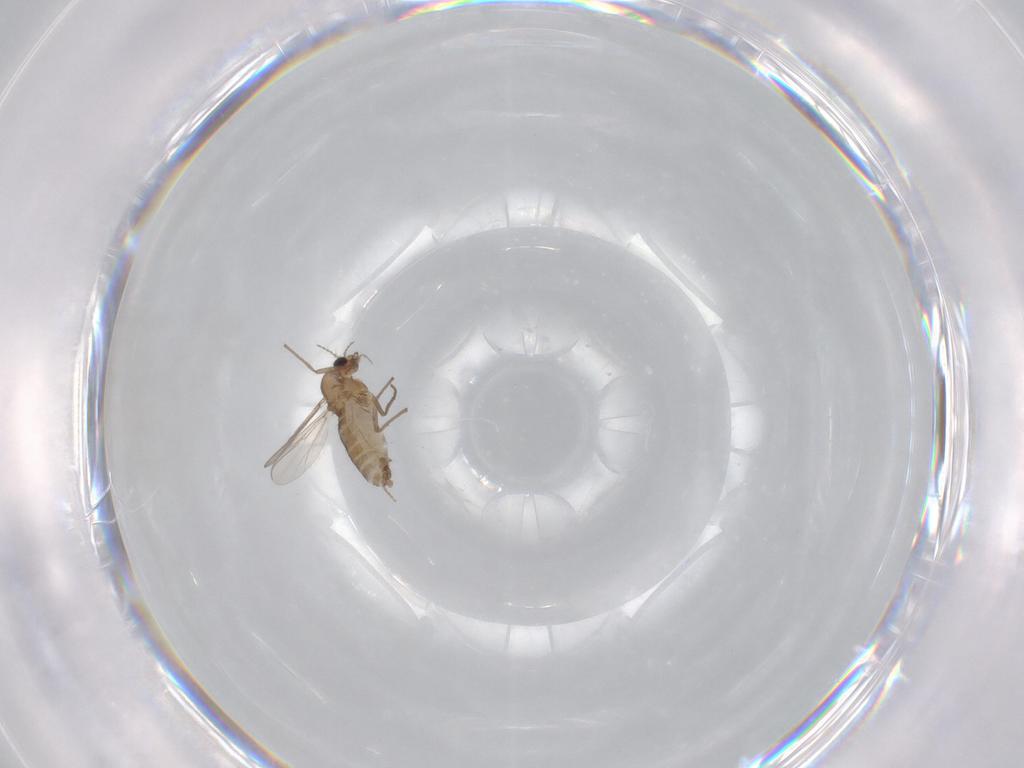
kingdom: Animalia
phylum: Arthropoda
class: Insecta
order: Diptera
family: Chironomidae
